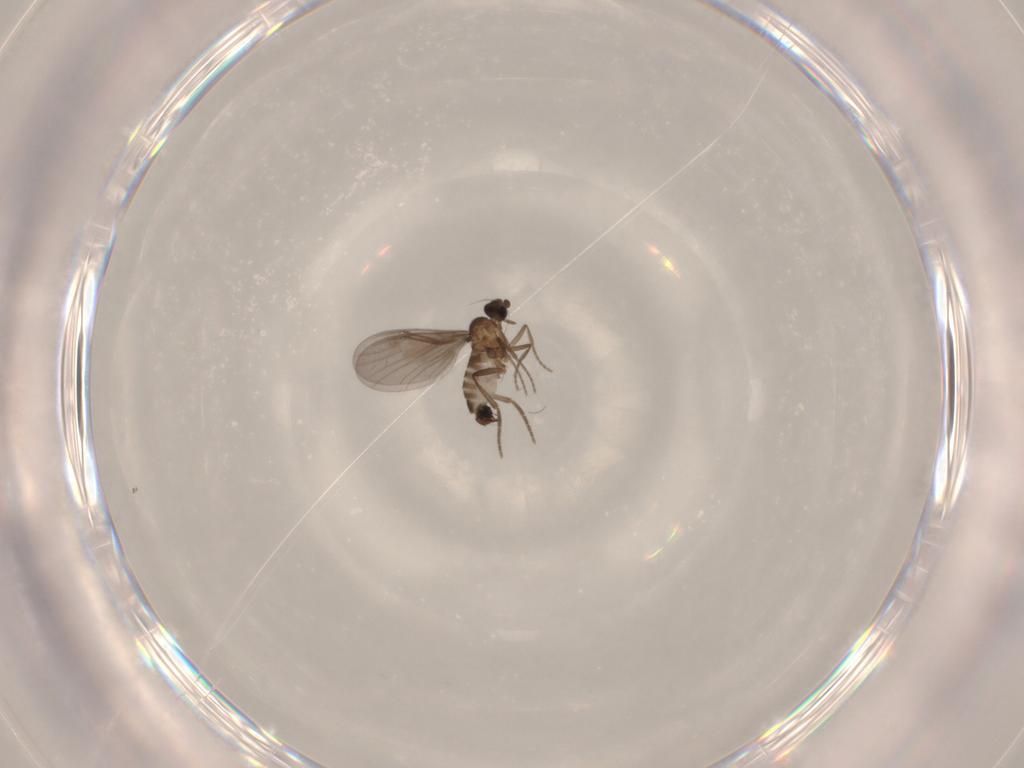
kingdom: Animalia
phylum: Arthropoda
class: Insecta
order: Diptera
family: Phoridae
